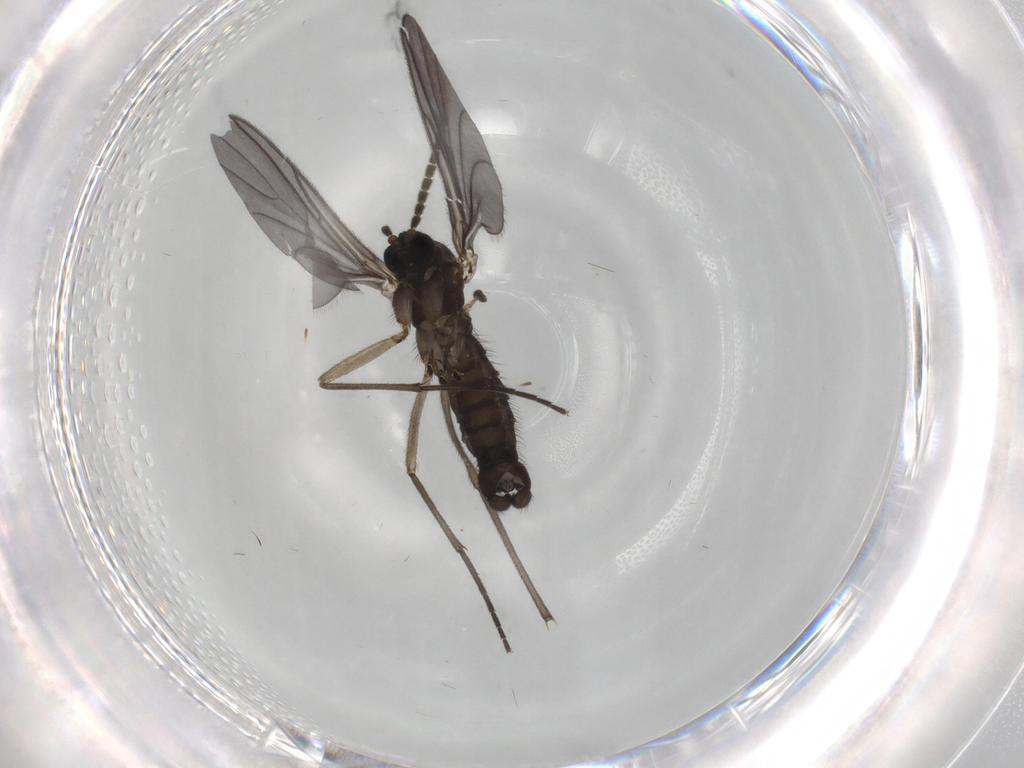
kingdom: Animalia
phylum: Arthropoda
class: Insecta
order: Diptera
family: Sciaridae
